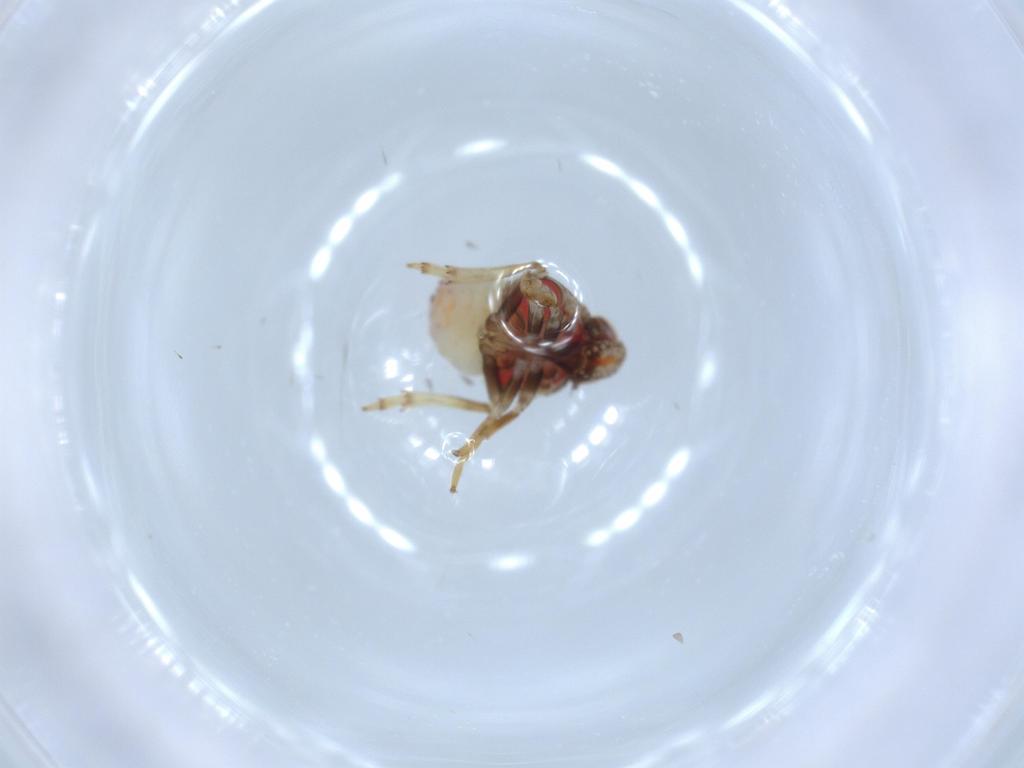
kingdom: Animalia
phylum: Arthropoda
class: Insecta
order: Hemiptera
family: Issidae
